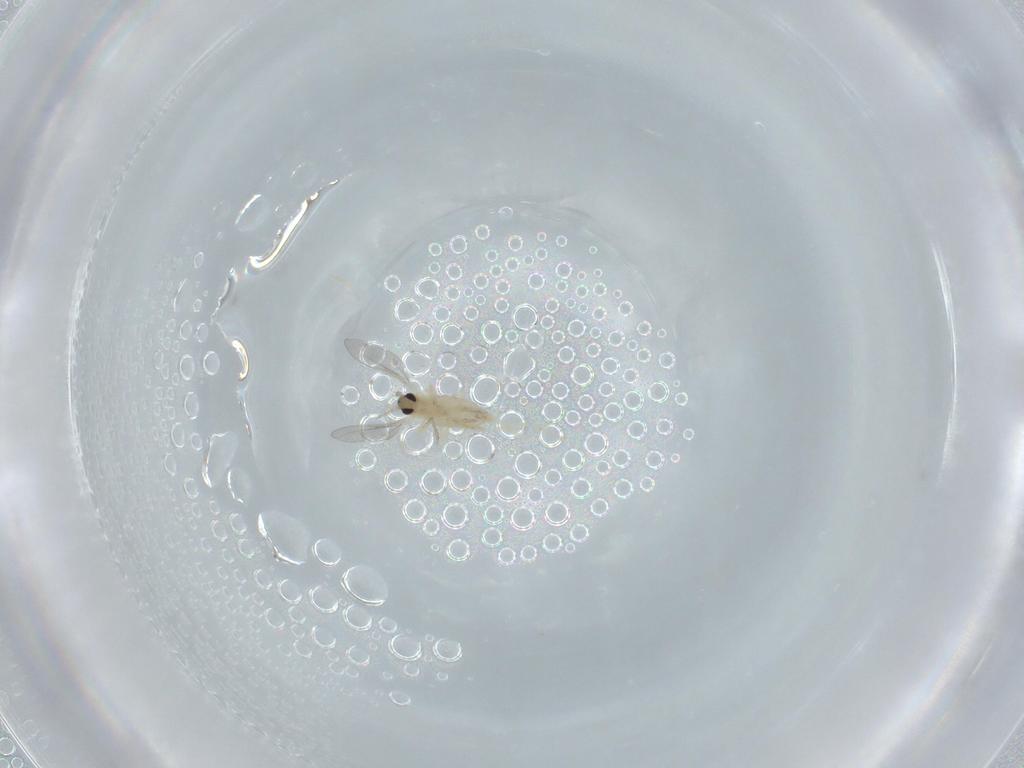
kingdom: Animalia
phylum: Arthropoda
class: Insecta
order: Diptera
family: Cecidomyiidae
